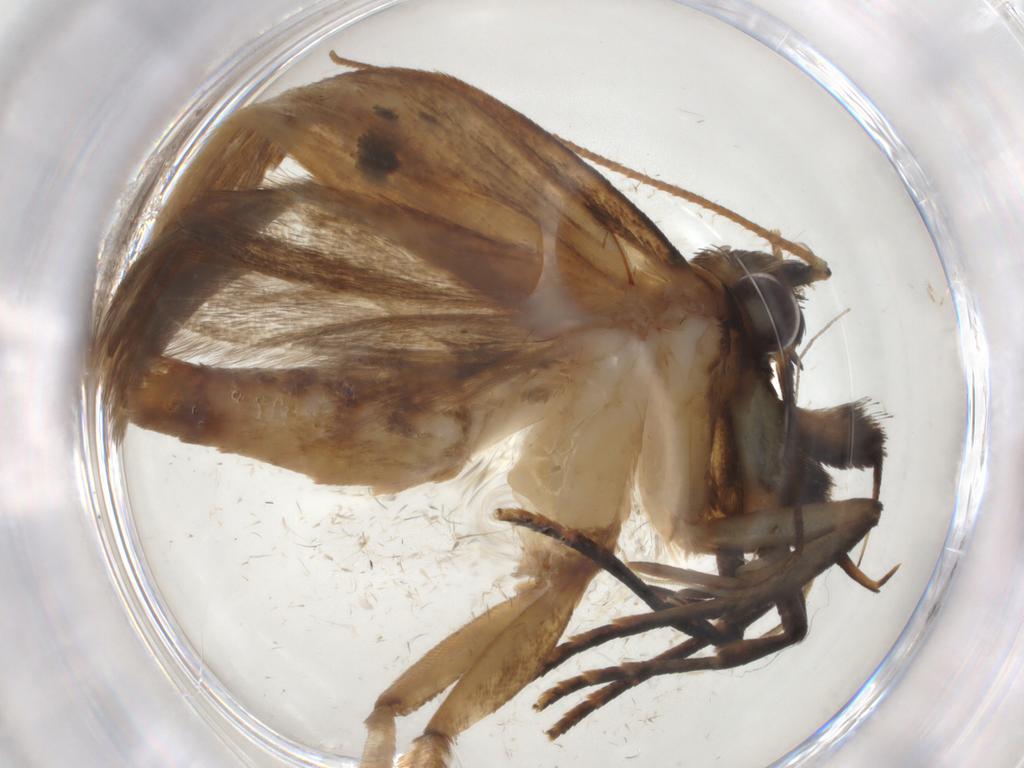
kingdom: Animalia
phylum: Arthropoda
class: Insecta
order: Lepidoptera
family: Gelechiidae
